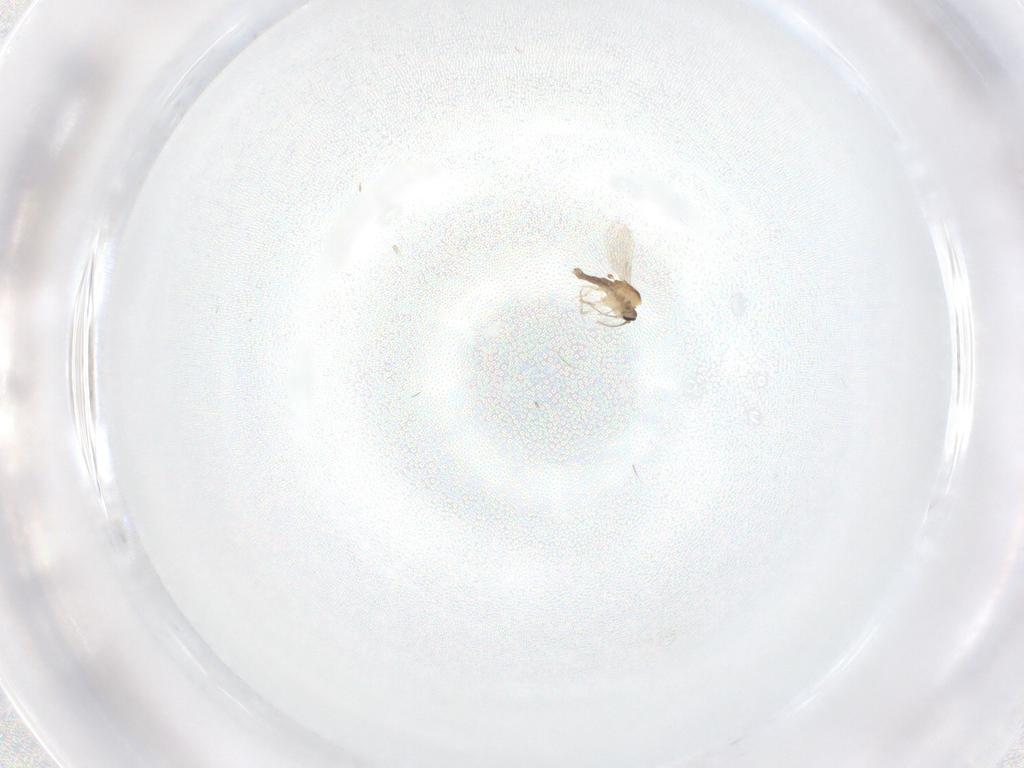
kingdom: Animalia
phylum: Arthropoda
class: Insecta
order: Diptera
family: Ceratopogonidae
